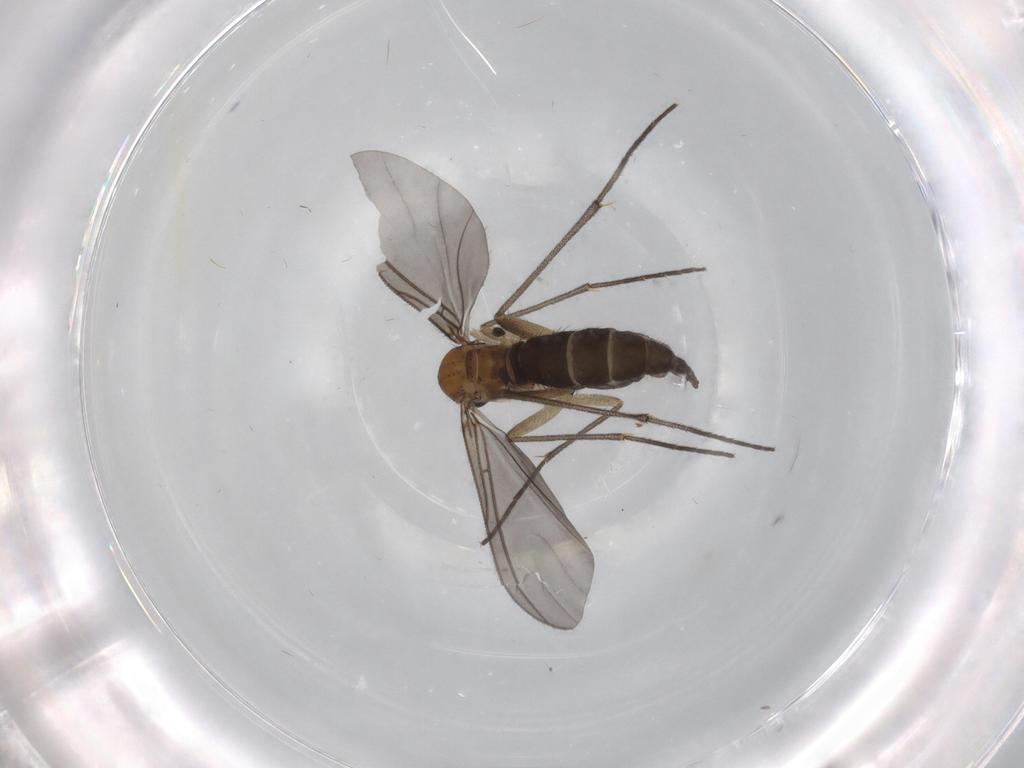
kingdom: Animalia
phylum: Arthropoda
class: Insecta
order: Diptera
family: Sciaridae
